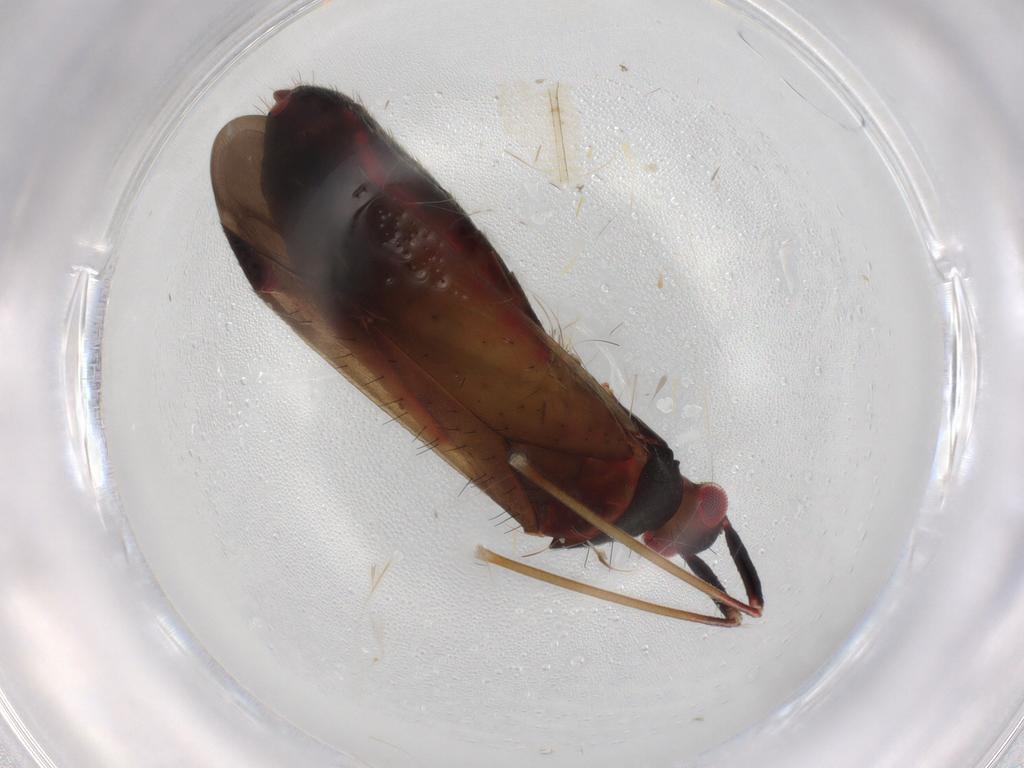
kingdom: Animalia
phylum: Arthropoda
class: Insecta
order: Hemiptera
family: Miridae
